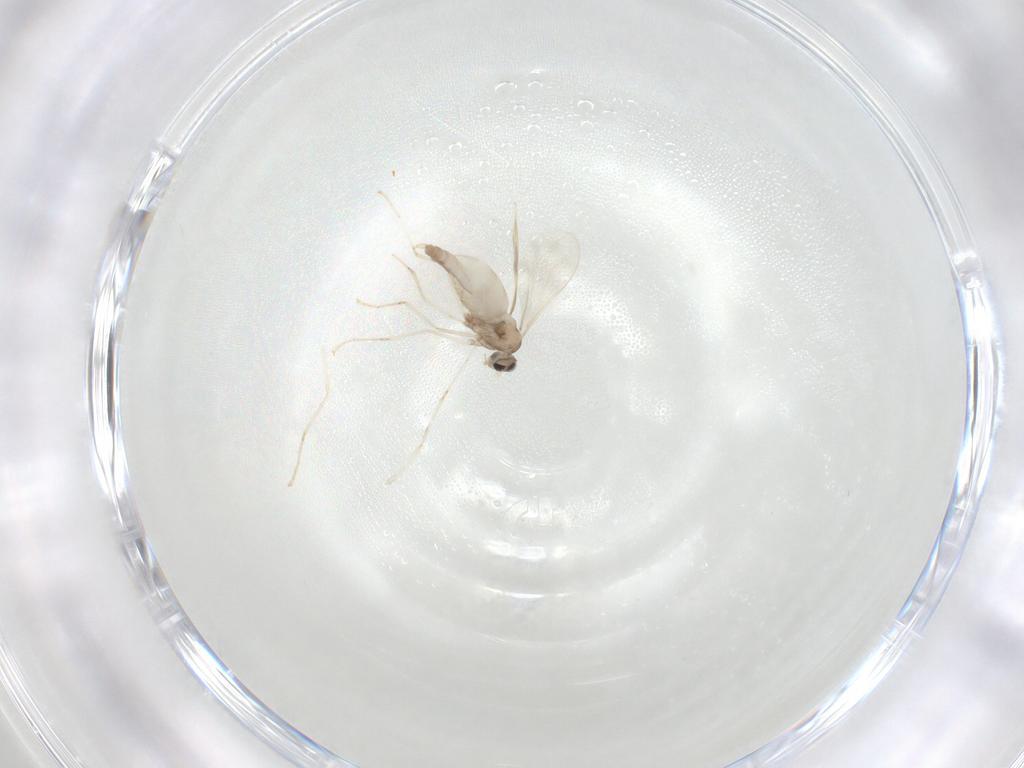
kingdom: Animalia
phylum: Arthropoda
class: Insecta
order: Diptera
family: Cecidomyiidae
